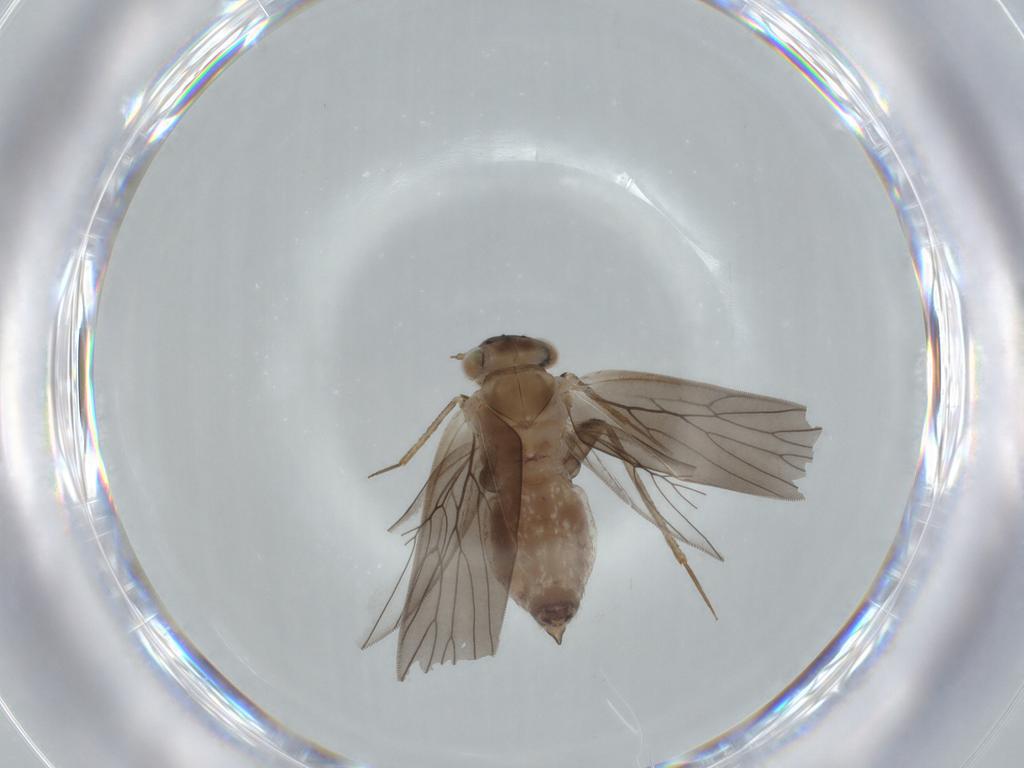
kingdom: Animalia
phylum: Arthropoda
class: Insecta
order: Psocodea
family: Lepidopsocidae
